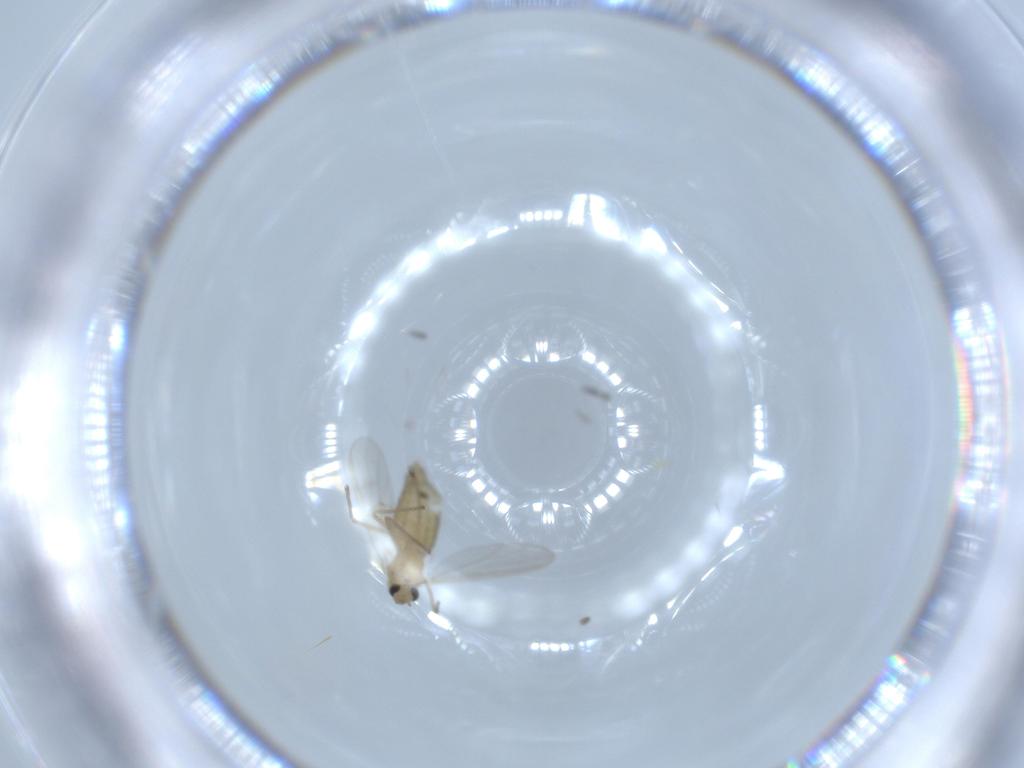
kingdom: Animalia
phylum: Arthropoda
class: Insecta
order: Diptera
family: Chironomidae
